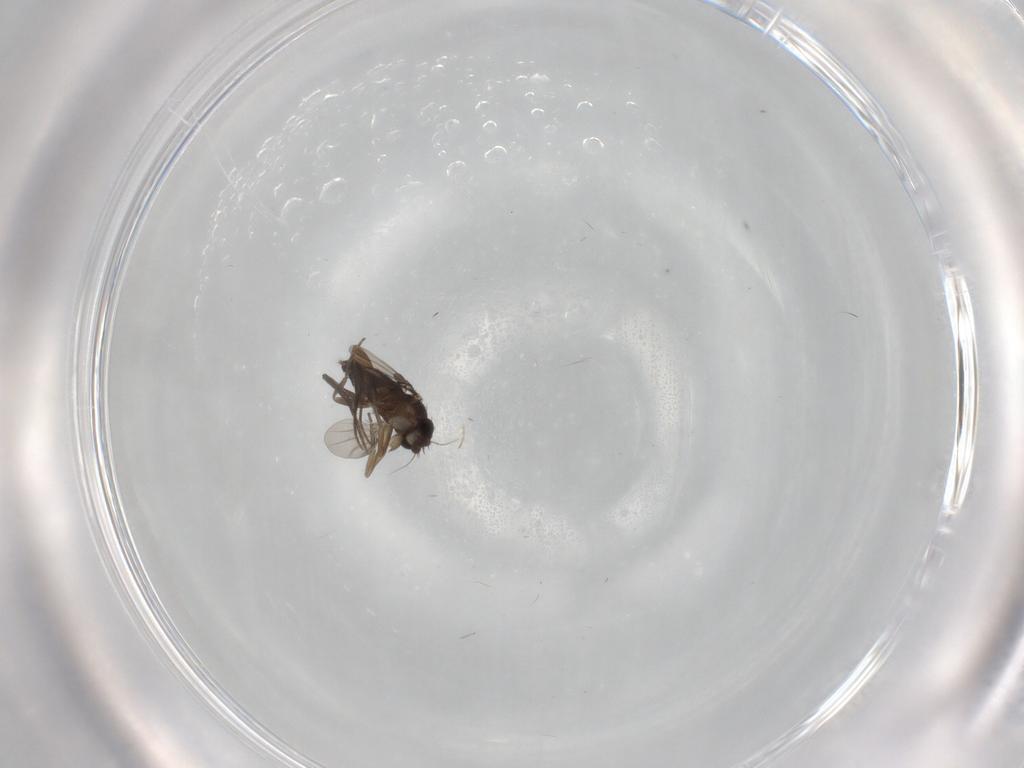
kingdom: Animalia
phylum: Arthropoda
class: Insecta
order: Diptera
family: Phoridae
